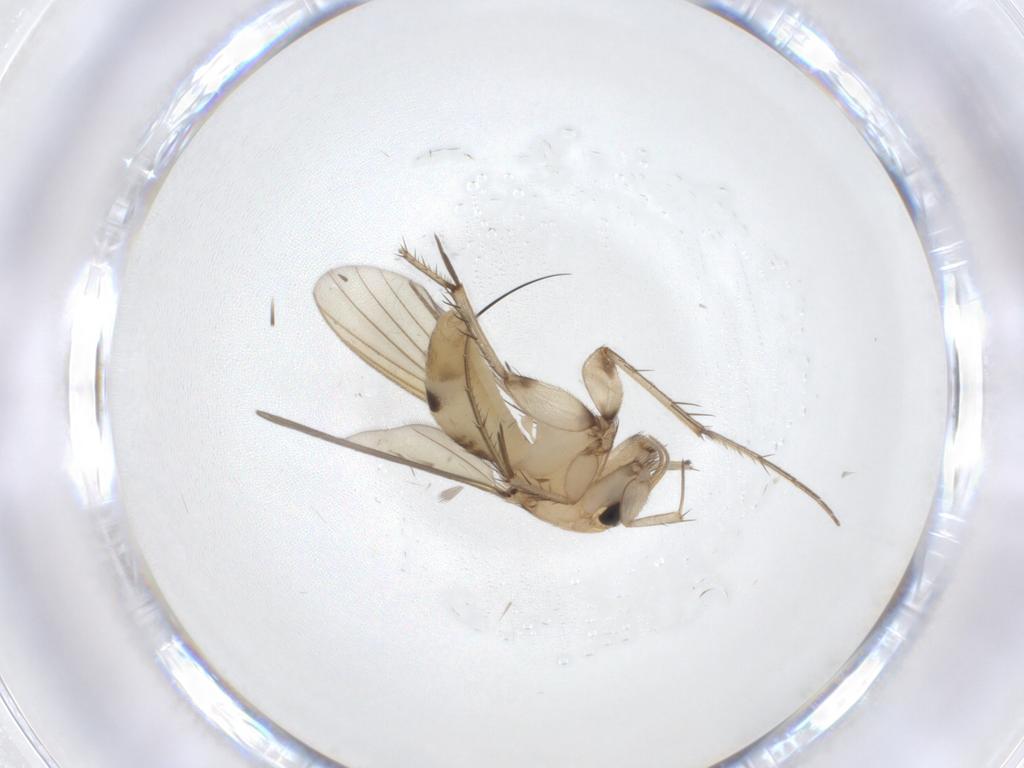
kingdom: Animalia
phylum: Arthropoda
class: Insecta
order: Diptera
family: Mycetophilidae
